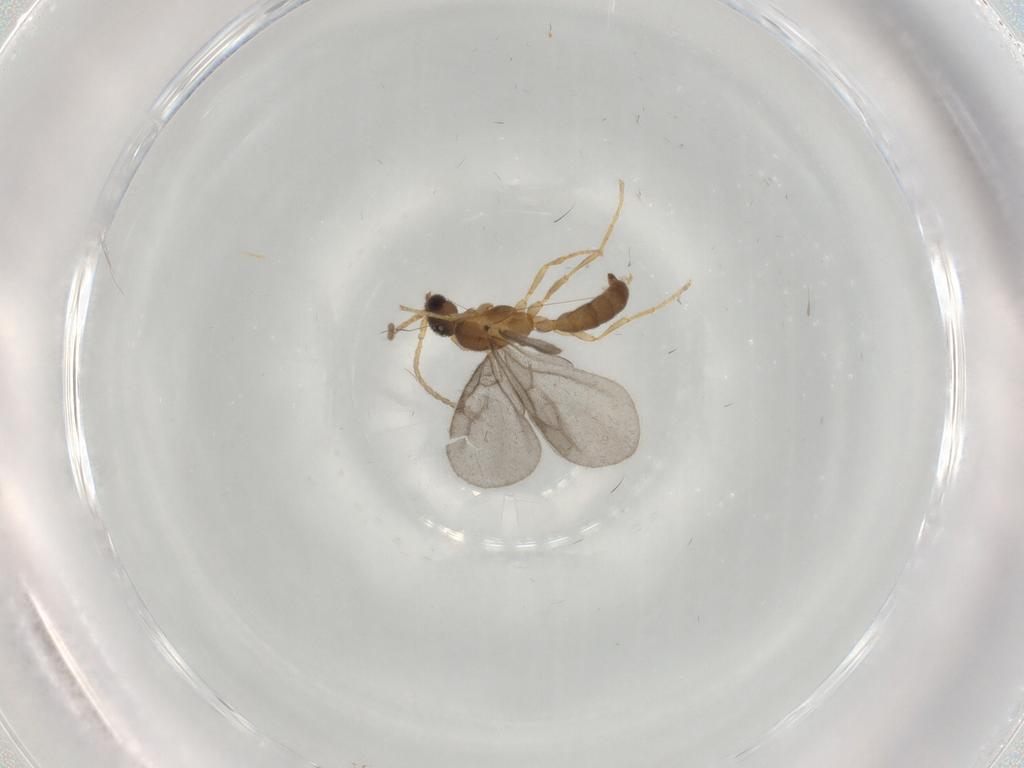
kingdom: Animalia
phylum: Arthropoda
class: Insecta
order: Hymenoptera
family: Formicidae
